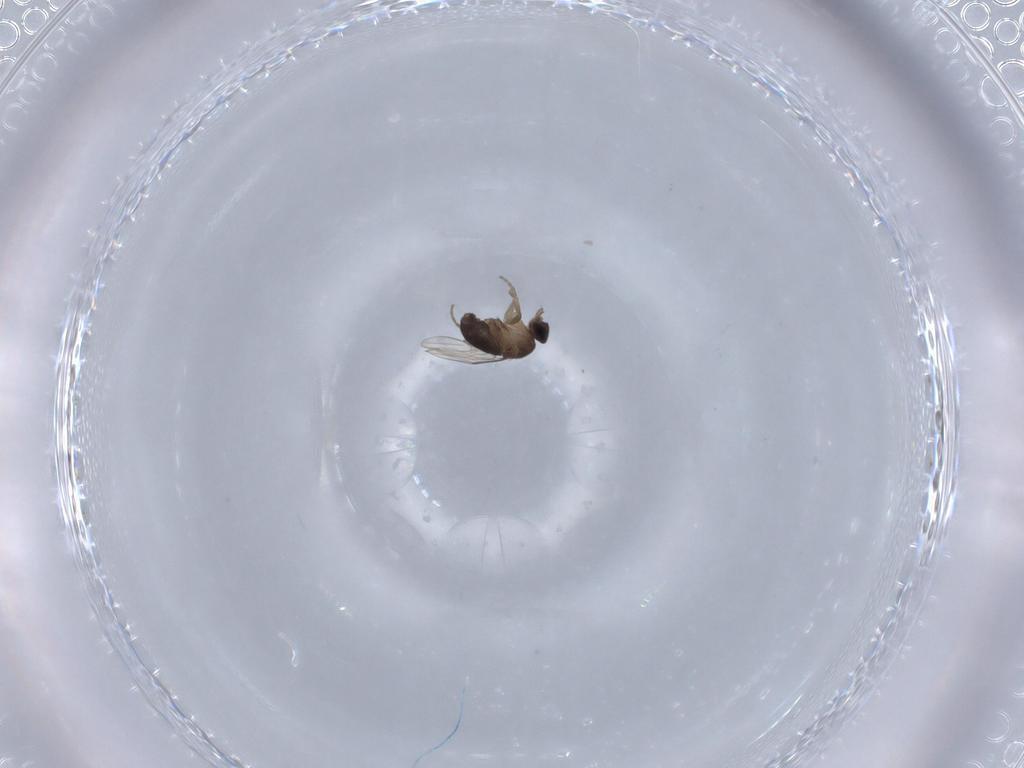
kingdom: Animalia
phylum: Arthropoda
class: Insecta
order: Diptera
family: Phoridae
